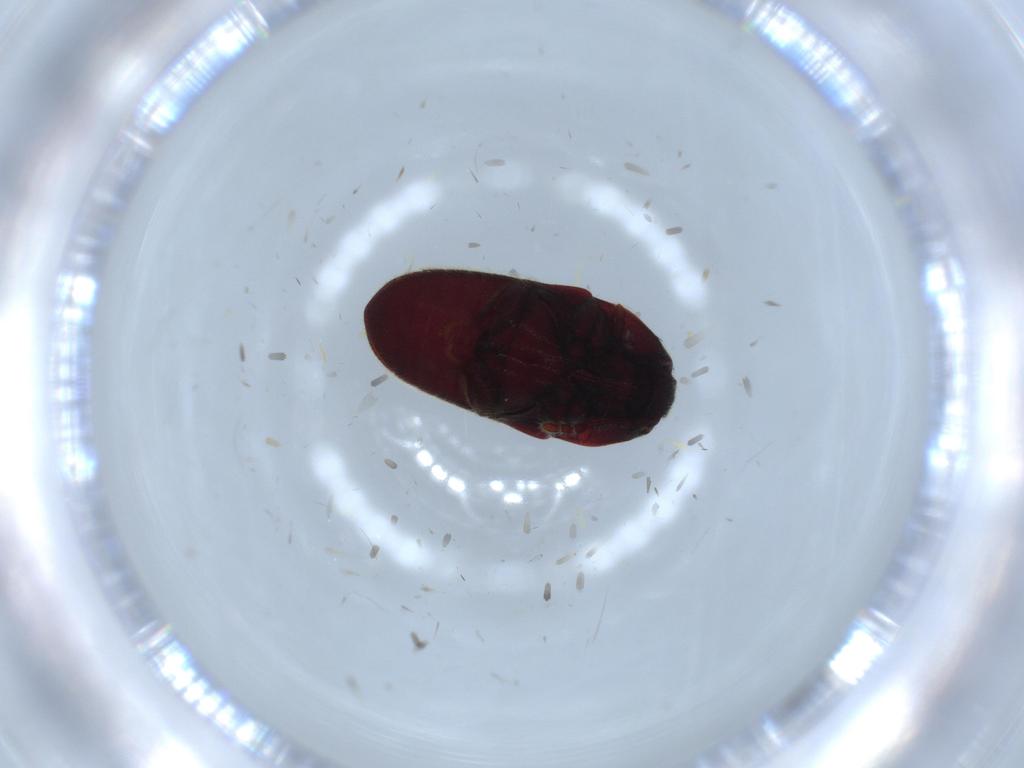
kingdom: Animalia
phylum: Arthropoda
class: Insecta
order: Coleoptera
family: Throscidae
